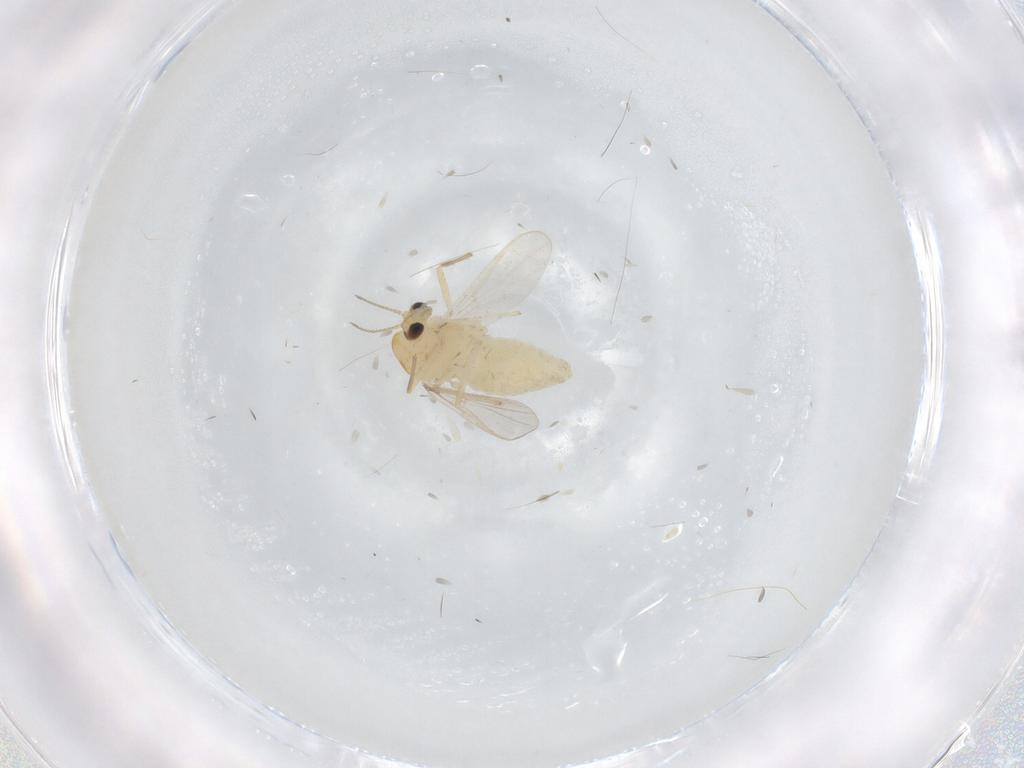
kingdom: Animalia
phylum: Arthropoda
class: Insecta
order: Diptera
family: Chironomidae
